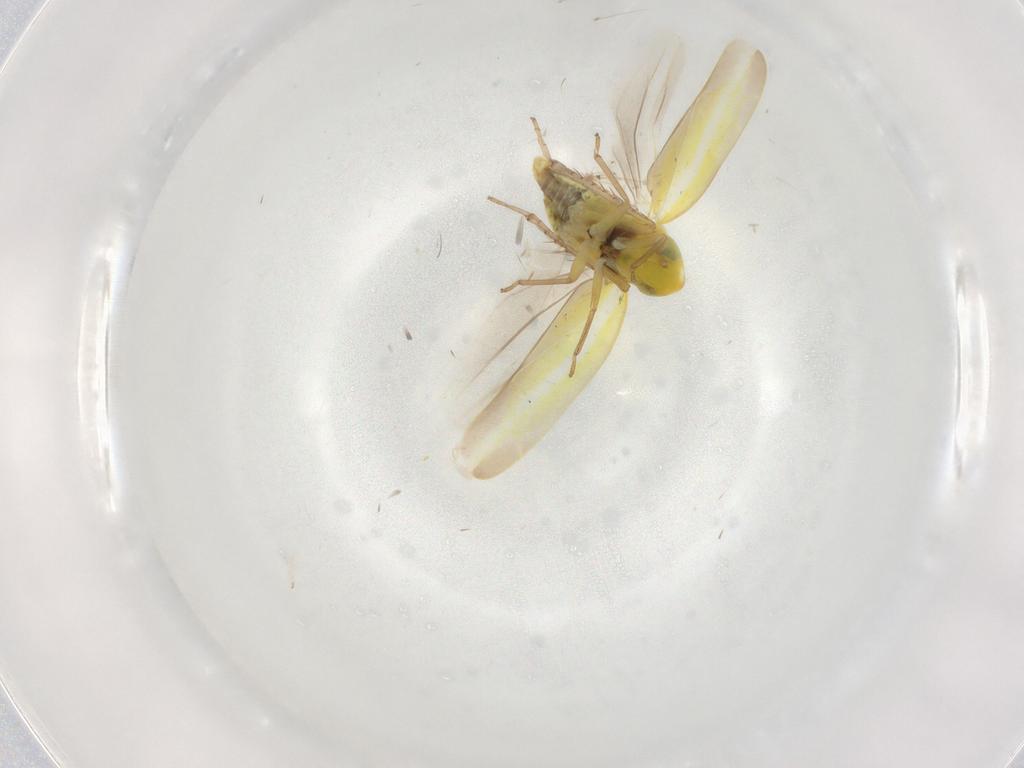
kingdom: Animalia
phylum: Arthropoda
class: Insecta
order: Hemiptera
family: Cicadellidae
